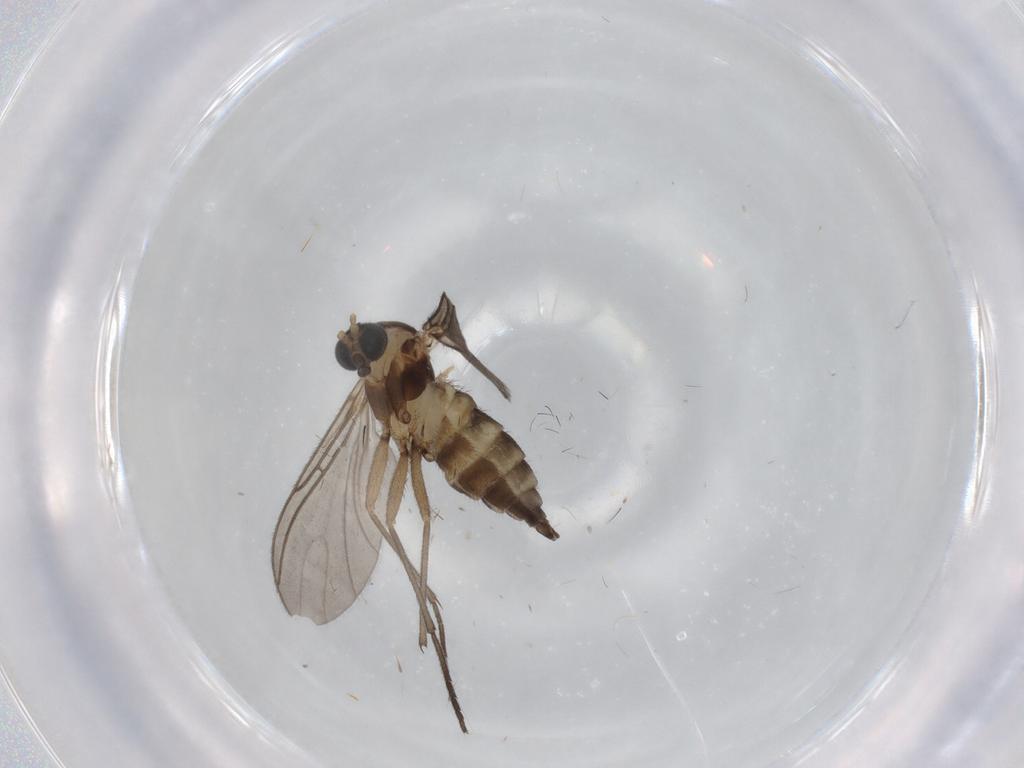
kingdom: Animalia
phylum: Arthropoda
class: Insecta
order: Diptera
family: Sciaridae
